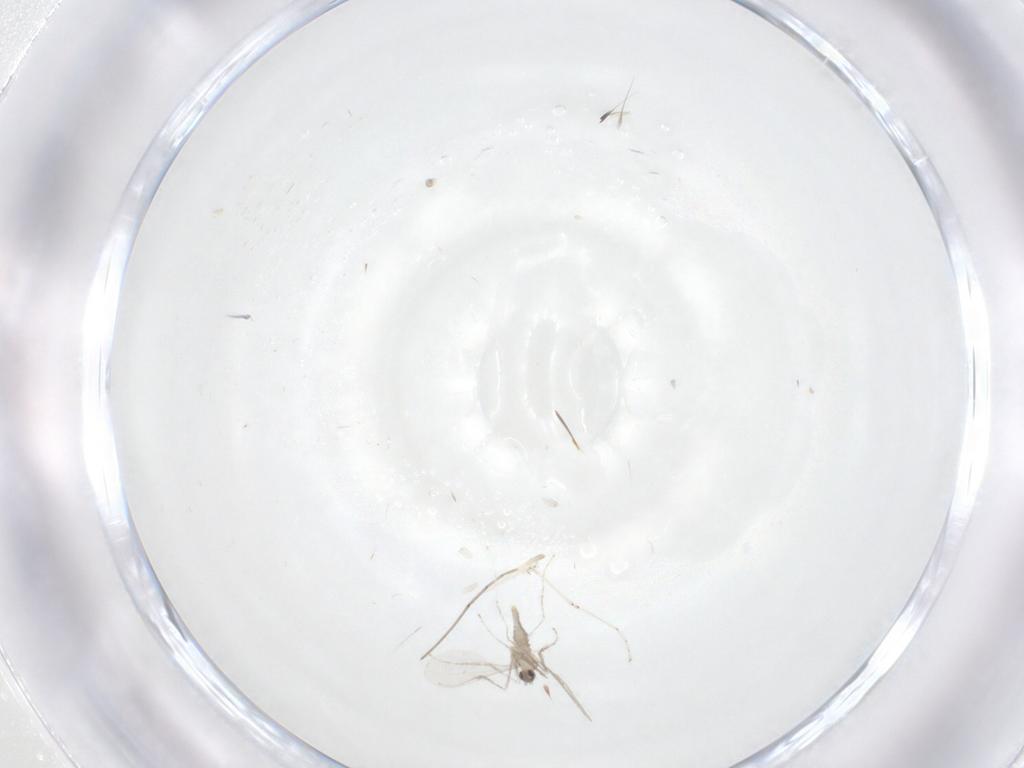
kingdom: Animalia
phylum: Arthropoda
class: Insecta
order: Diptera
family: Cecidomyiidae
